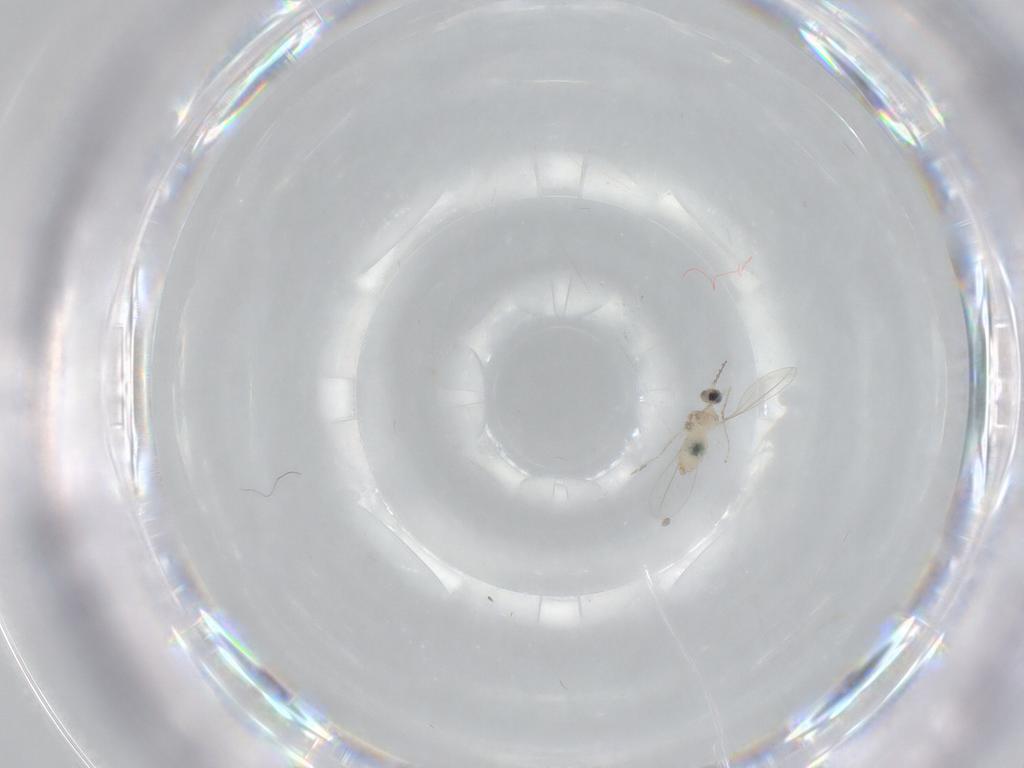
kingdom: Animalia
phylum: Arthropoda
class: Insecta
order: Diptera
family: Cecidomyiidae
